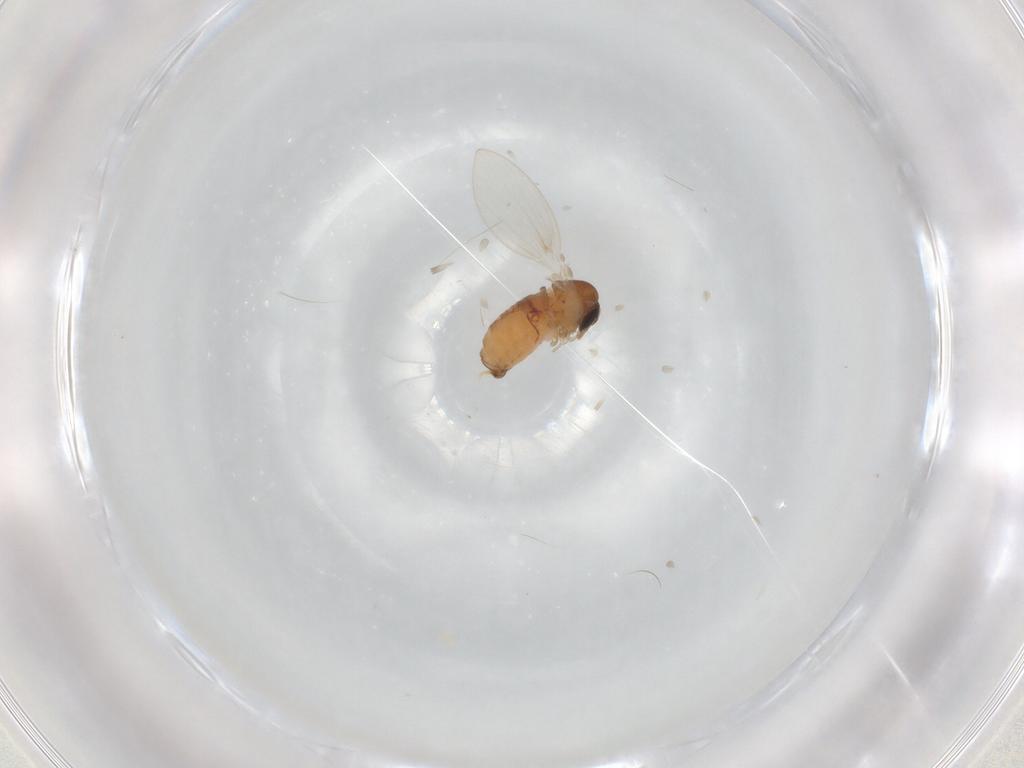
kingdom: Animalia
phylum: Arthropoda
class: Insecta
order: Diptera
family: Psychodidae
